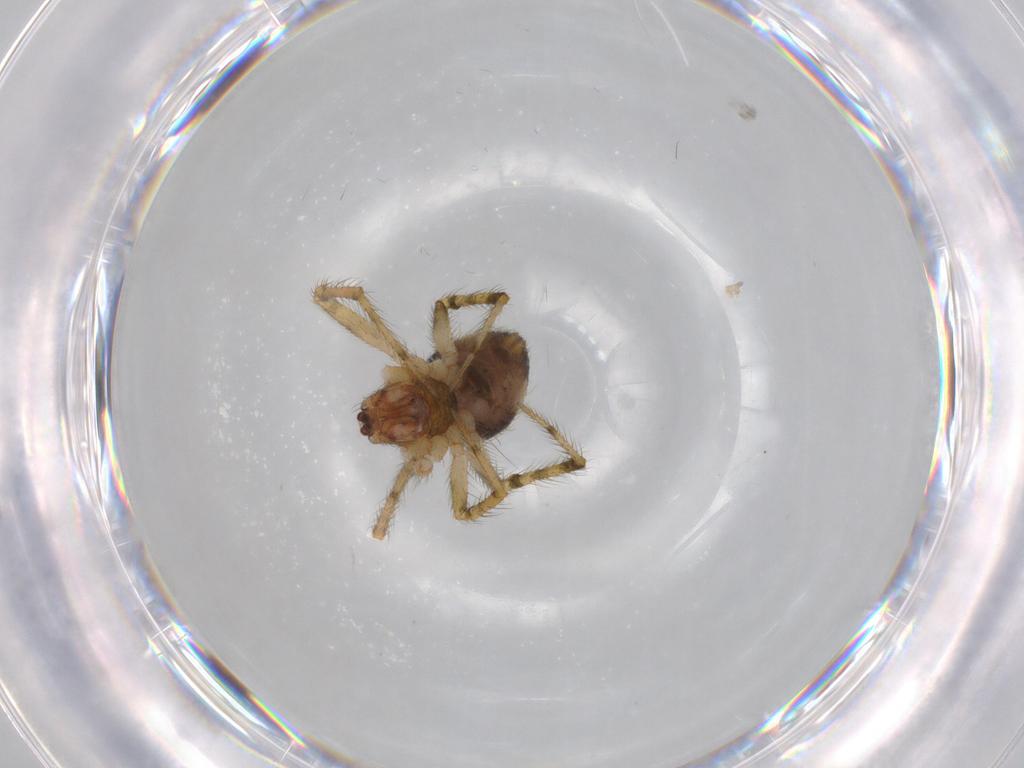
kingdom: Animalia
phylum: Arthropoda
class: Arachnida
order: Araneae
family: Theridiidae
